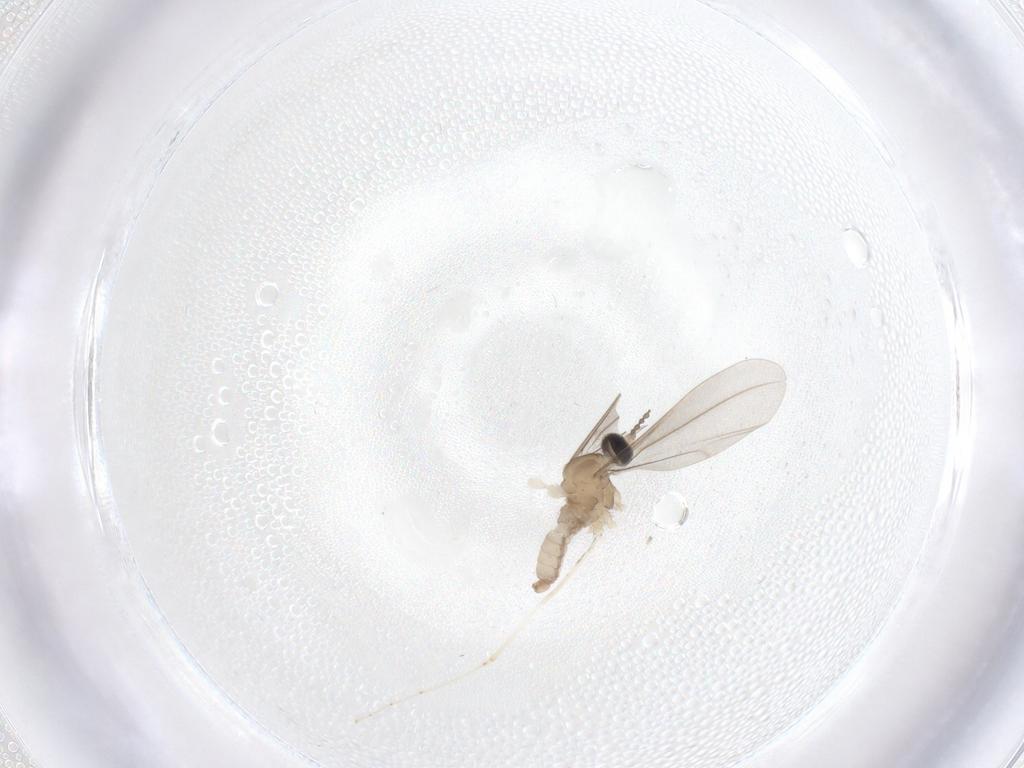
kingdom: Animalia
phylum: Arthropoda
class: Insecta
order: Diptera
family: Cecidomyiidae
